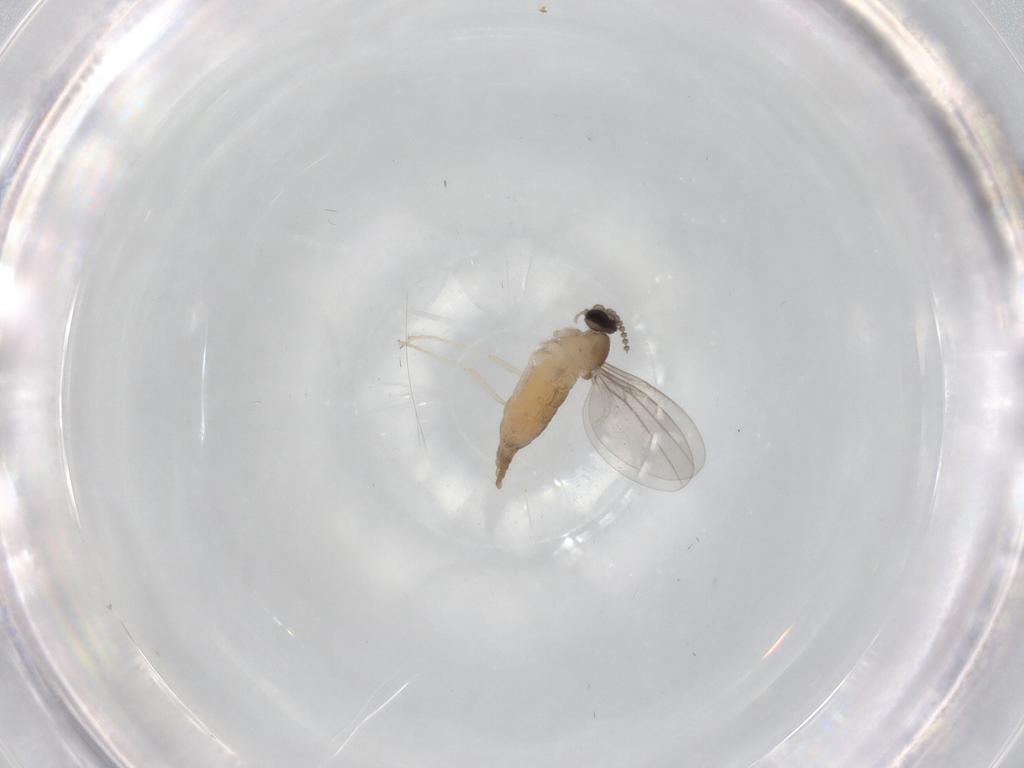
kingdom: Animalia
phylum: Arthropoda
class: Insecta
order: Diptera
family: Cecidomyiidae
